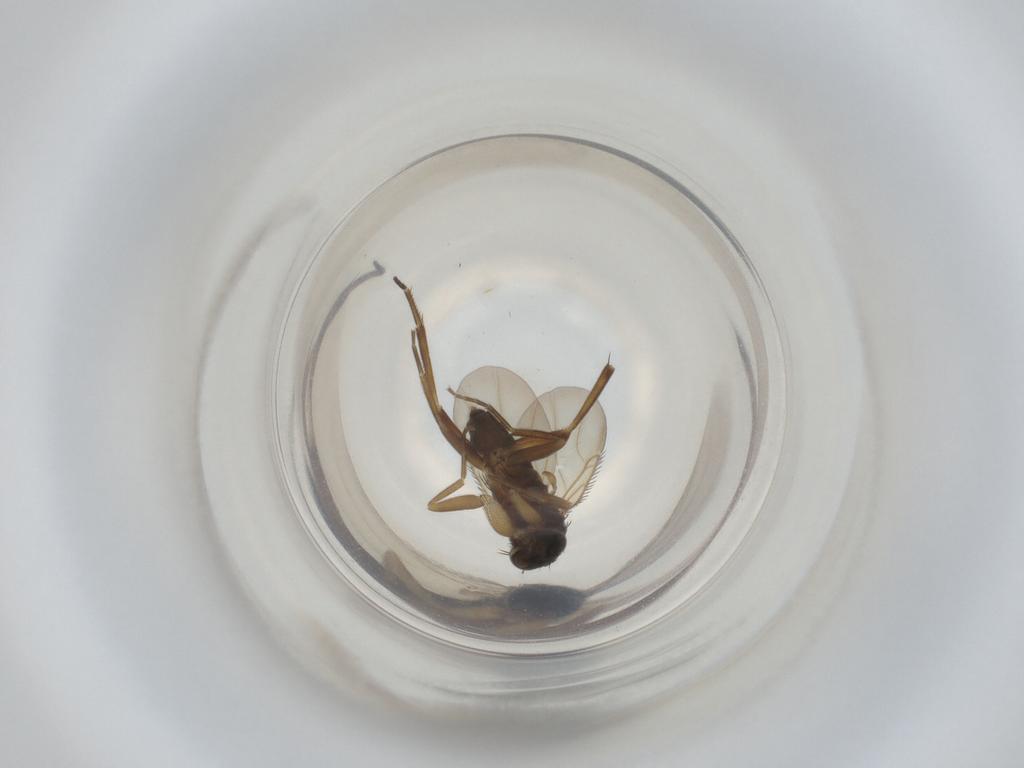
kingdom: Animalia
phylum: Arthropoda
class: Insecta
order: Diptera
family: Phoridae
